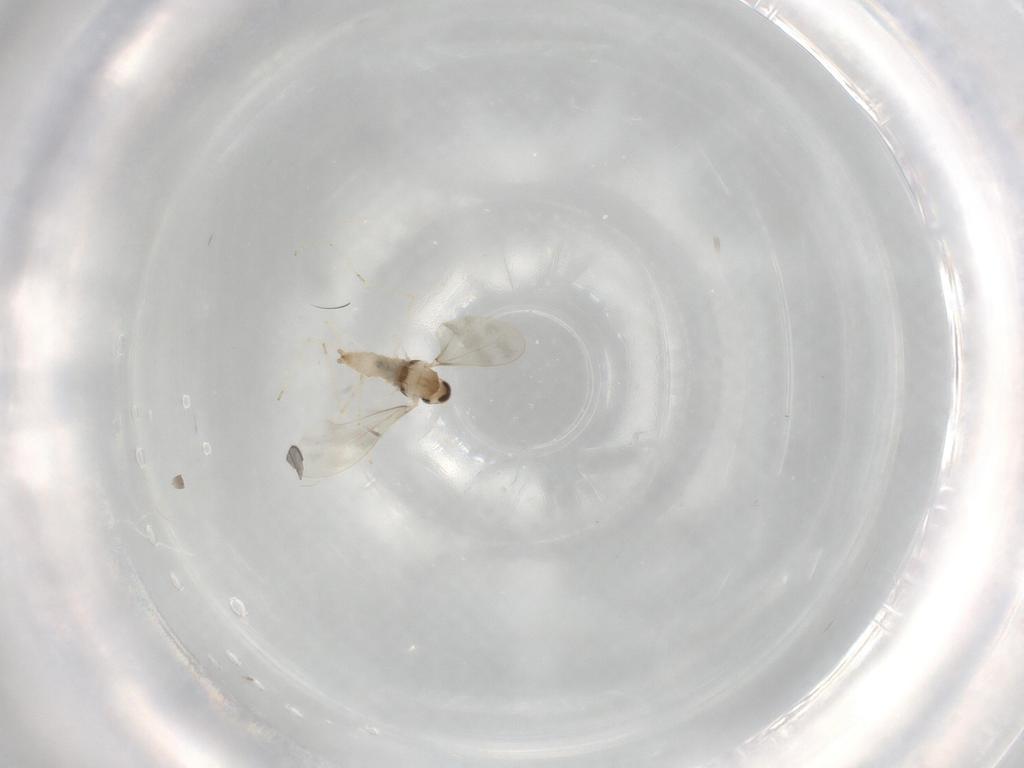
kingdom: Animalia
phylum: Arthropoda
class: Insecta
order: Diptera
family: Cecidomyiidae
